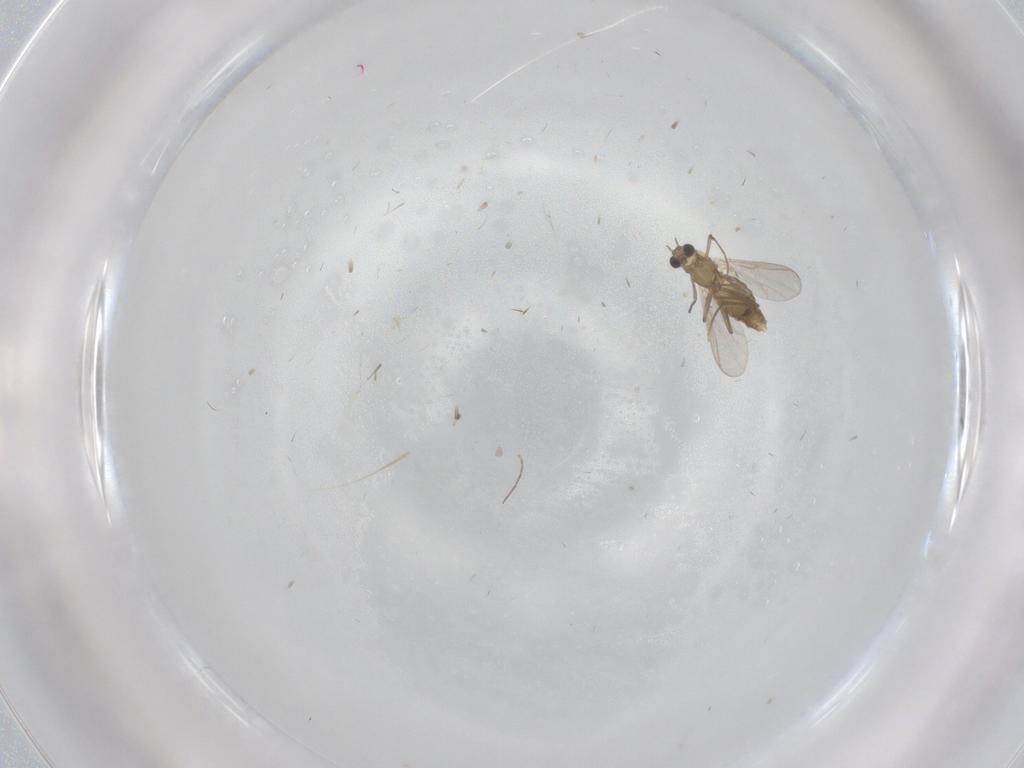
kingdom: Animalia
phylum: Arthropoda
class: Insecta
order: Diptera
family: Chironomidae
